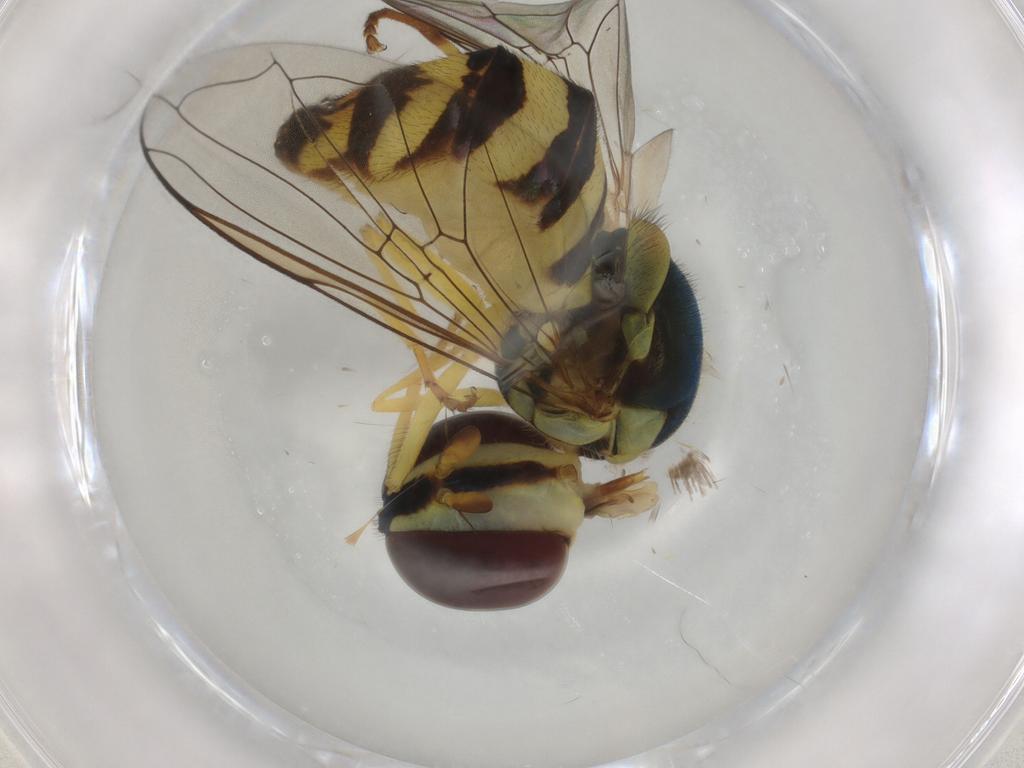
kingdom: Animalia
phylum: Arthropoda
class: Insecta
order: Diptera
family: Syrphidae
